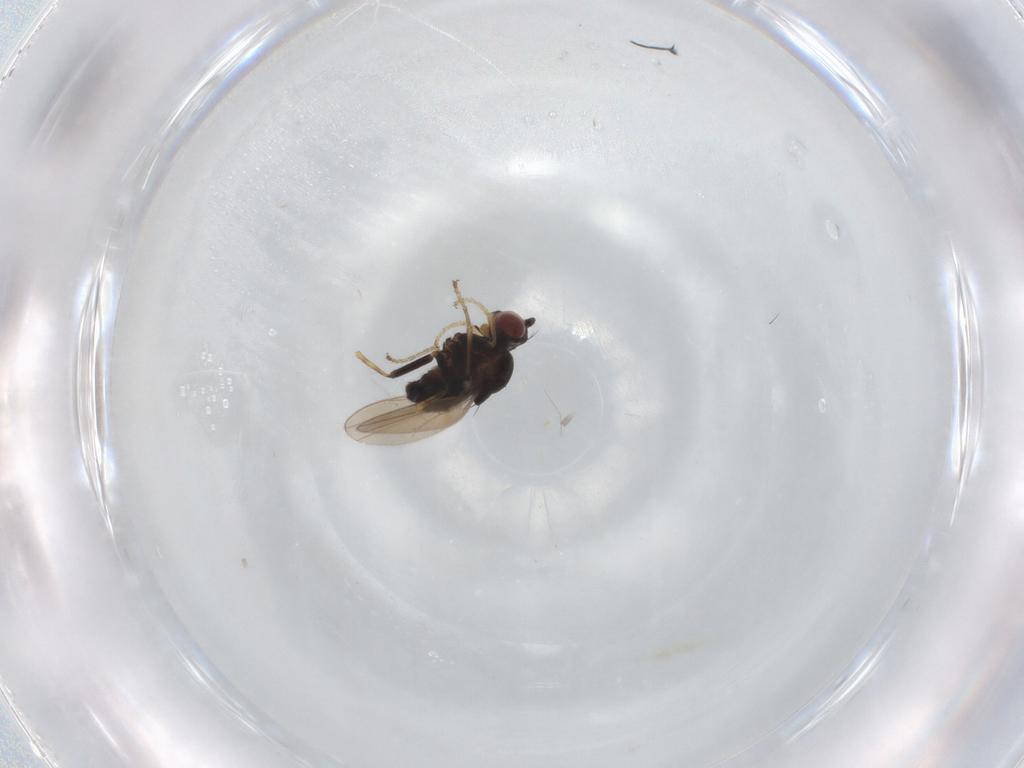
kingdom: Animalia
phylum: Arthropoda
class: Insecta
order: Diptera
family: Ephydridae
